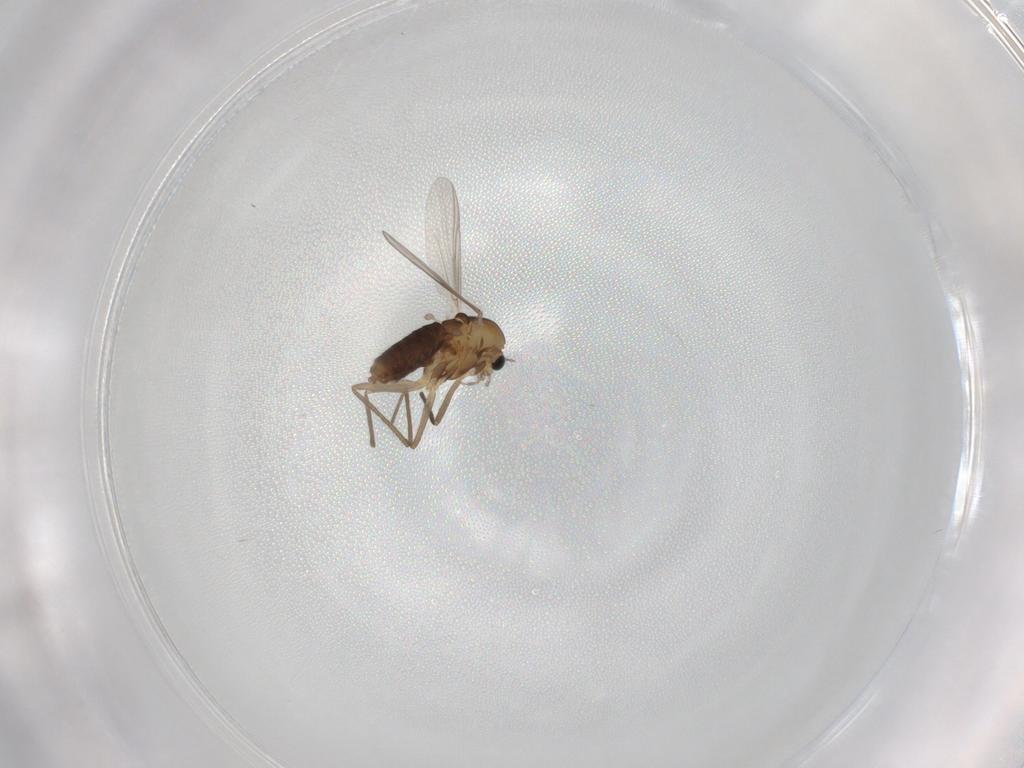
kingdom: Animalia
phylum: Arthropoda
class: Insecta
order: Diptera
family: Chironomidae
